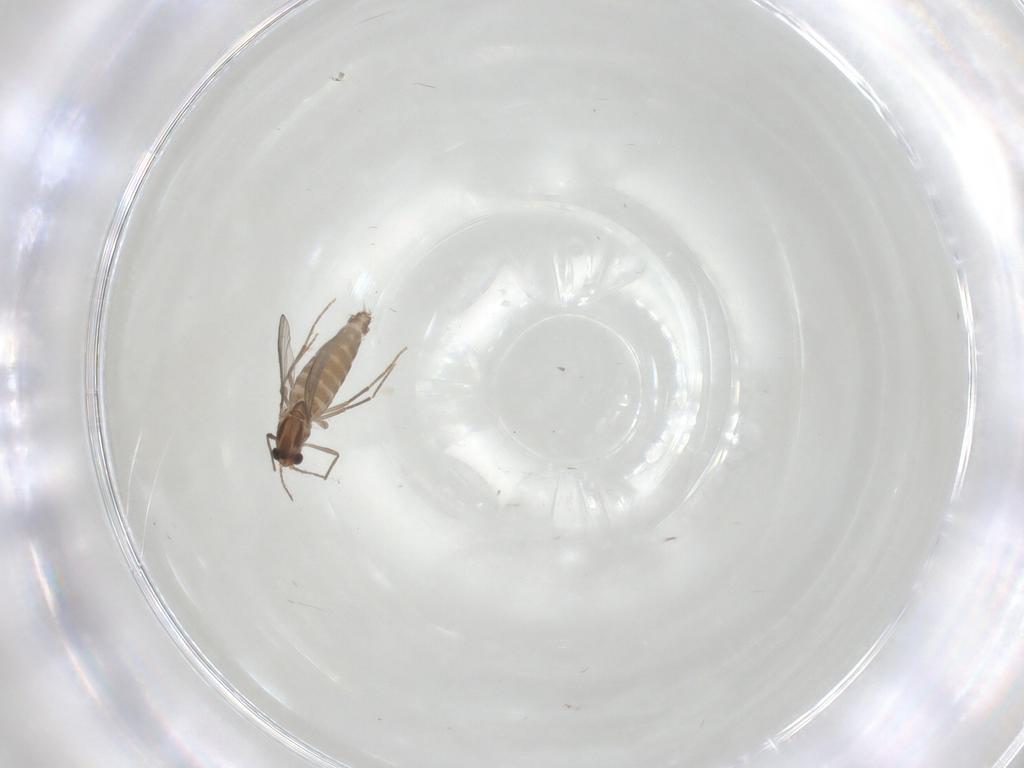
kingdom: Animalia
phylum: Arthropoda
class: Insecta
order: Diptera
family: Chironomidae
